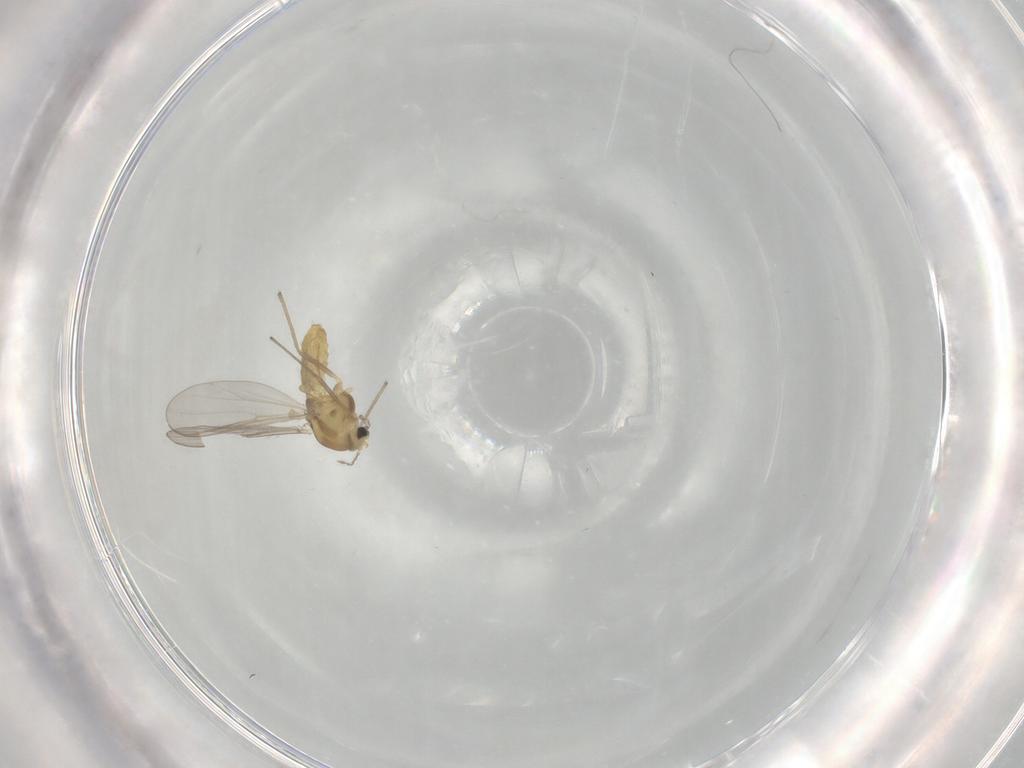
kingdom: Animalia
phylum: Arthropoda
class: Insecta
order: Diptera
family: Chironomidae
